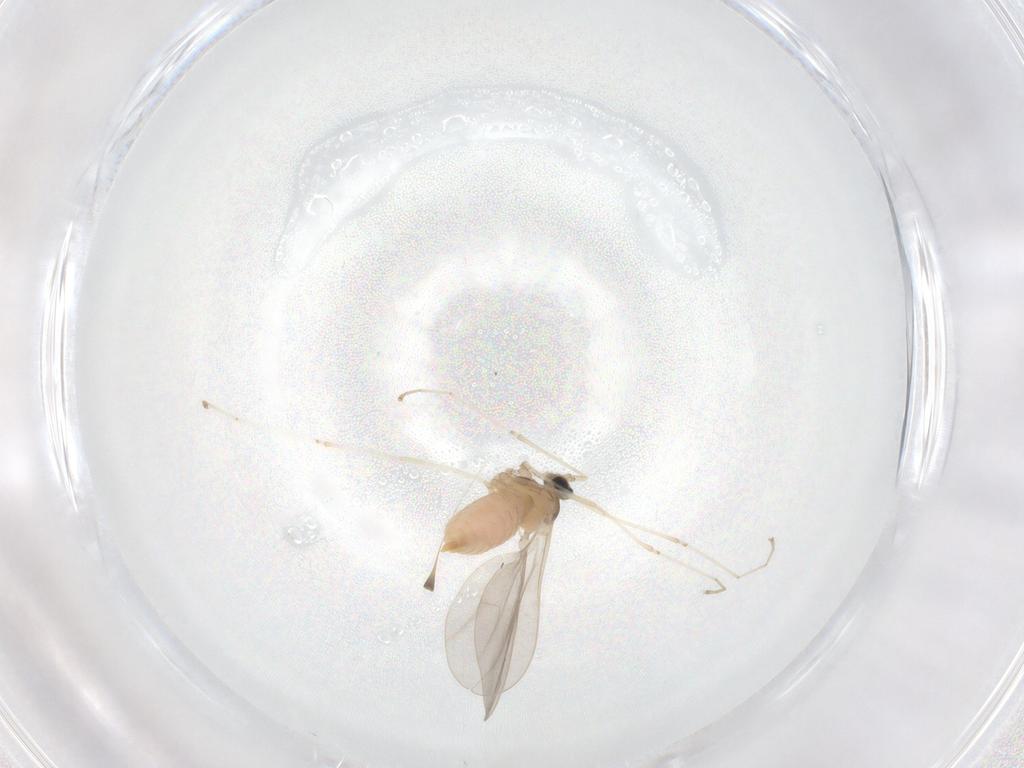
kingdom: Animalia
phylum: Arthropoda
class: Insecta
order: Diptera
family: Cecidomyiidae
